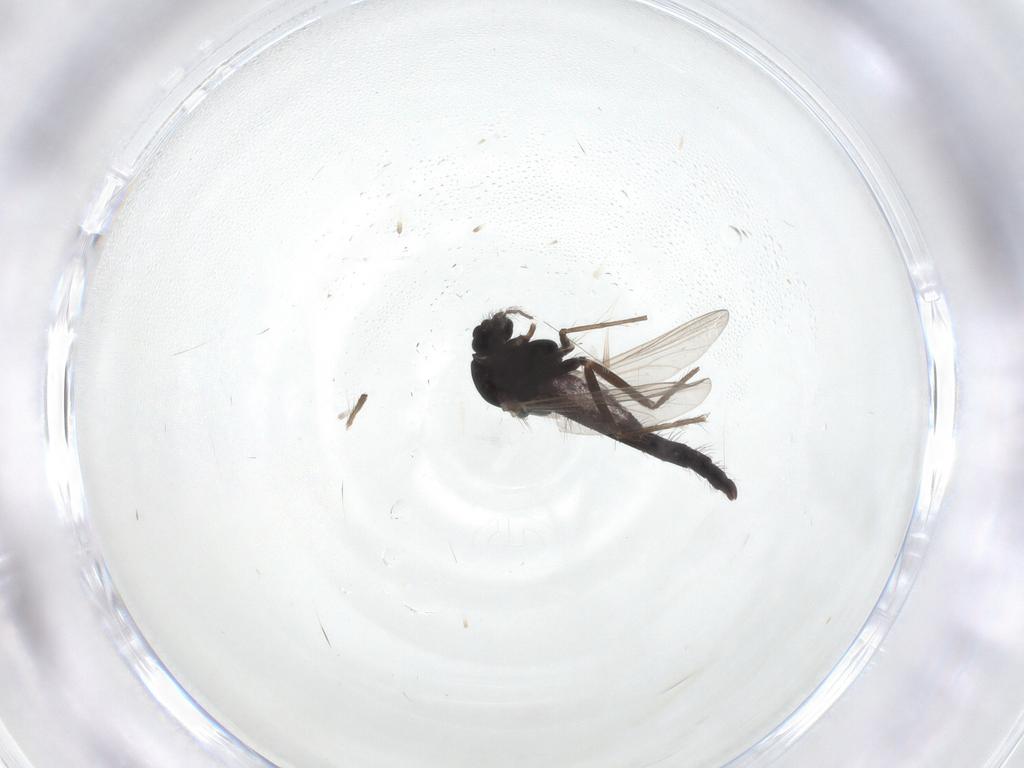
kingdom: Animalia
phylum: Arthropoda
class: Insecta
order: Diptera
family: Chironomidae
